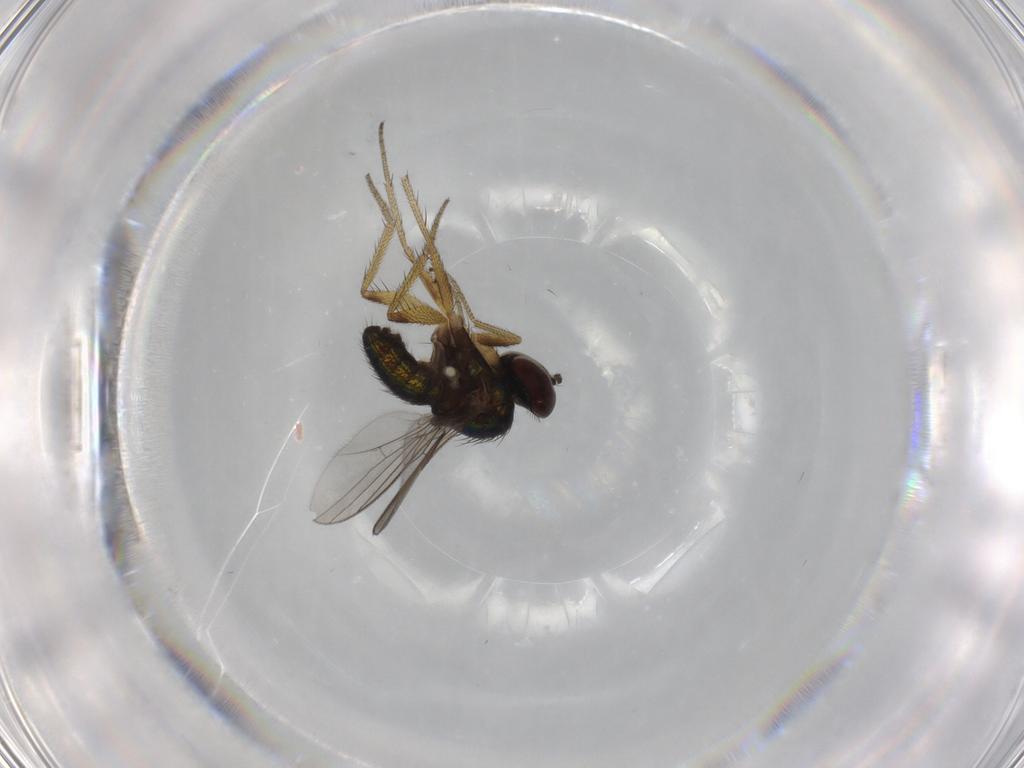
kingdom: Animalia
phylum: Arthropoda
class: Insecta
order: Diptera
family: Dolichopodidae
